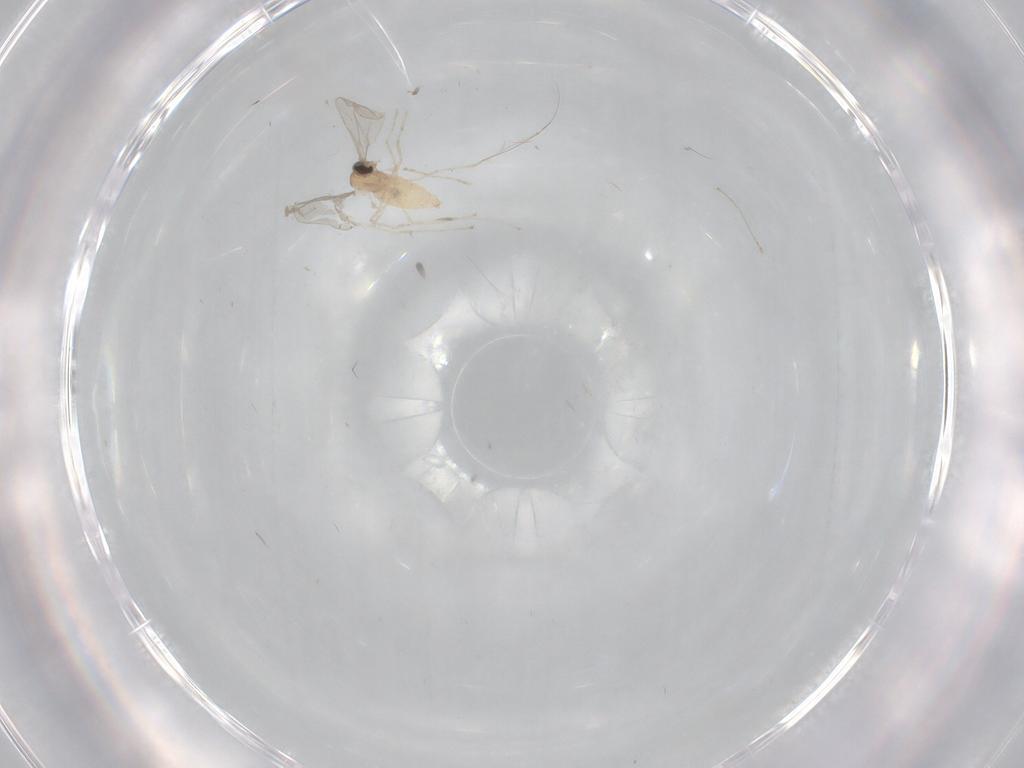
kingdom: Animalia
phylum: Arthropoda
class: Insecta
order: Diptera
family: Cecidomyiidae
